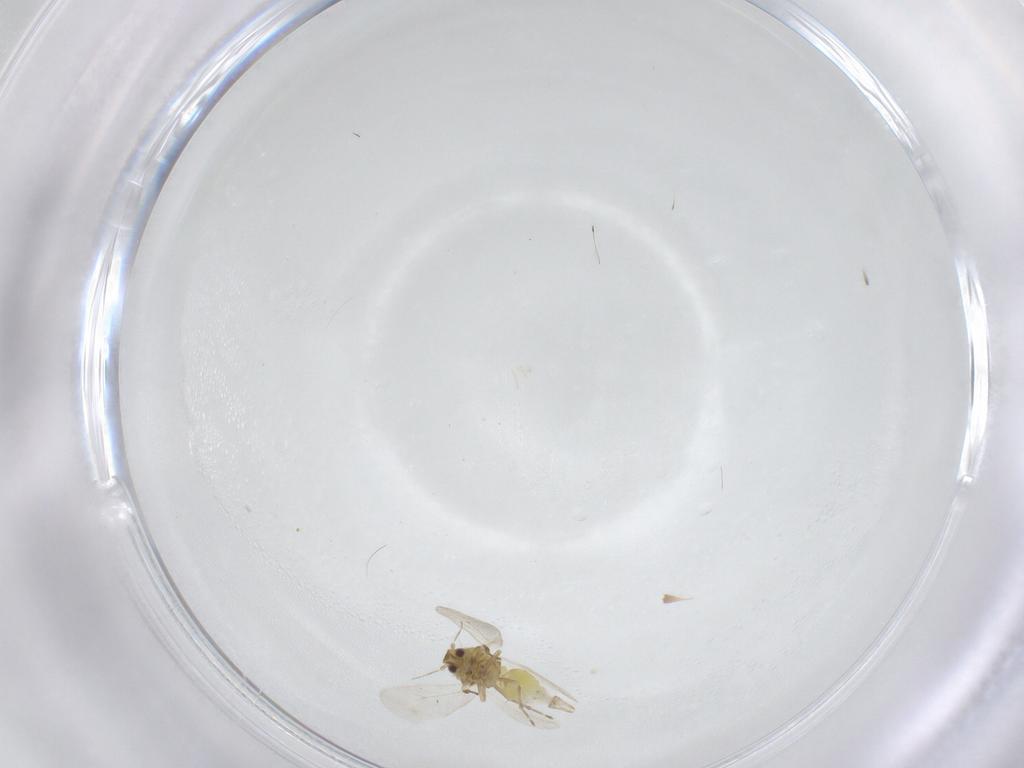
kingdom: Animalia
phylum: Arthropoda
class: Insecta
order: Hemiptera
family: Aleyrodidae
